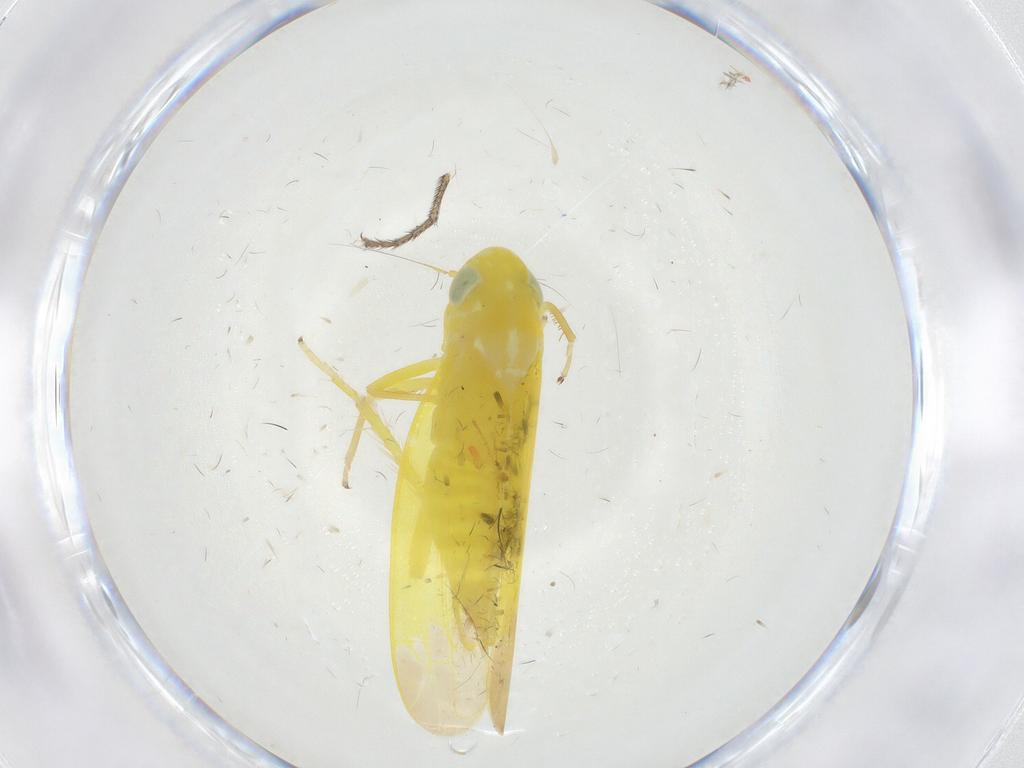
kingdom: Animalia
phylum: Arthropoda
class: Insecta
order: Hemiptera
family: Cicadellidae
